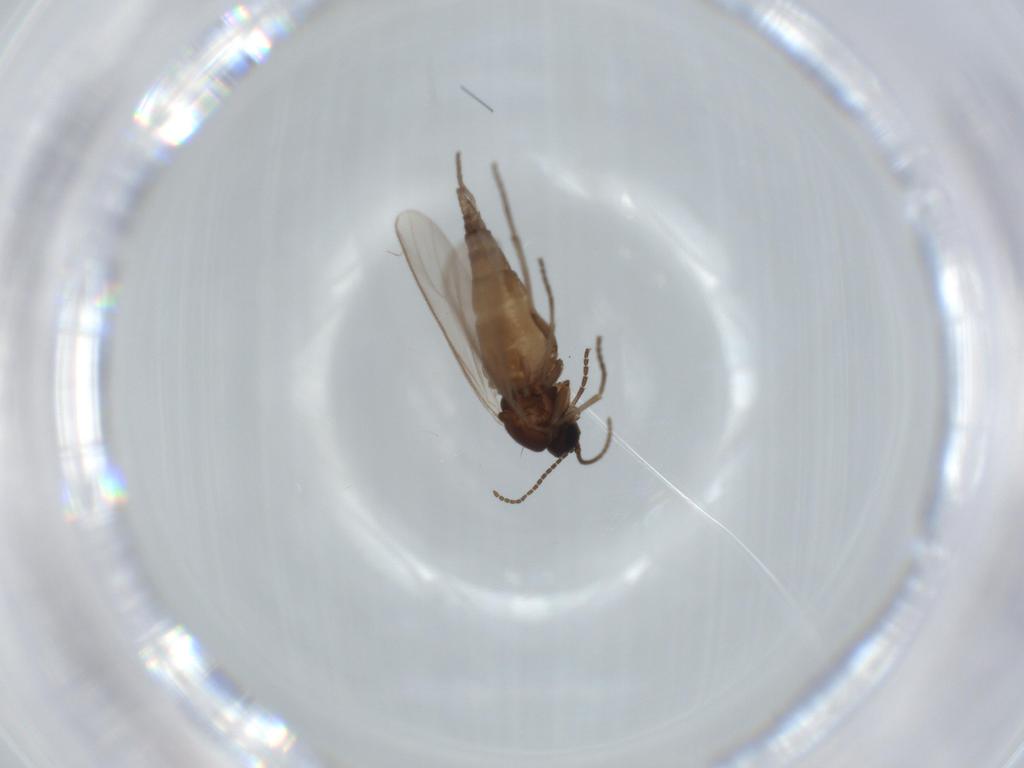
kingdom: Animalia
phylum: Arthropoda
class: Insecta
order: Diptera
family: Sciaridae
